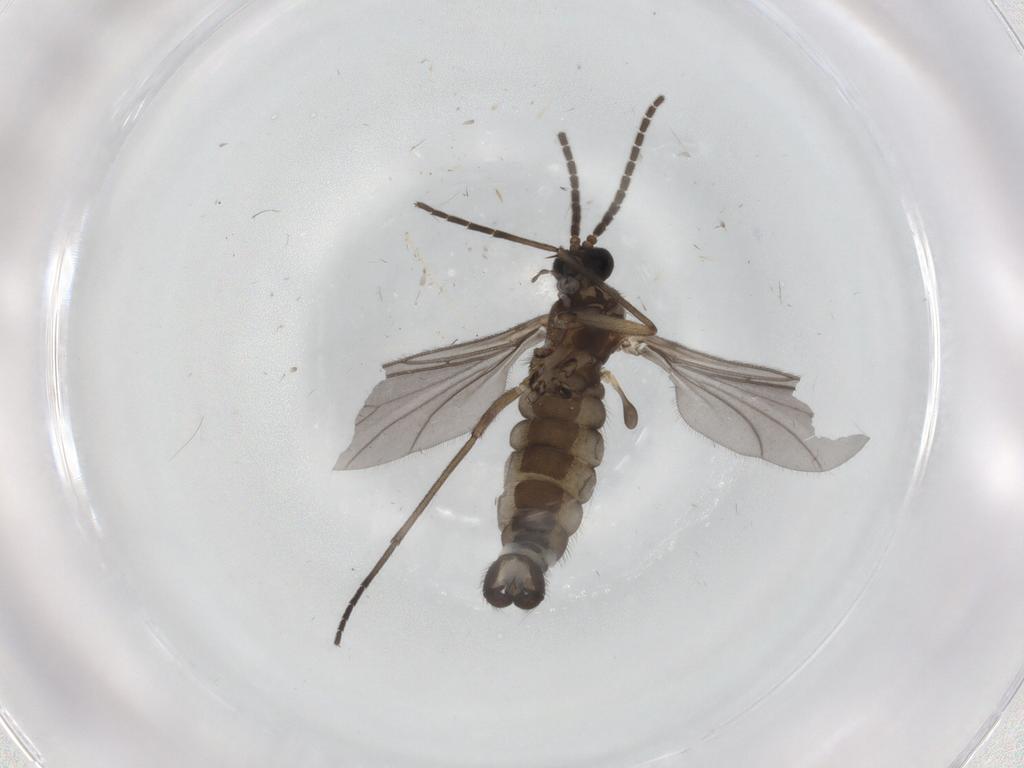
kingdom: Animalia
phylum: Arthropoda
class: Insecta
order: Diptera
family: Sciaridae
